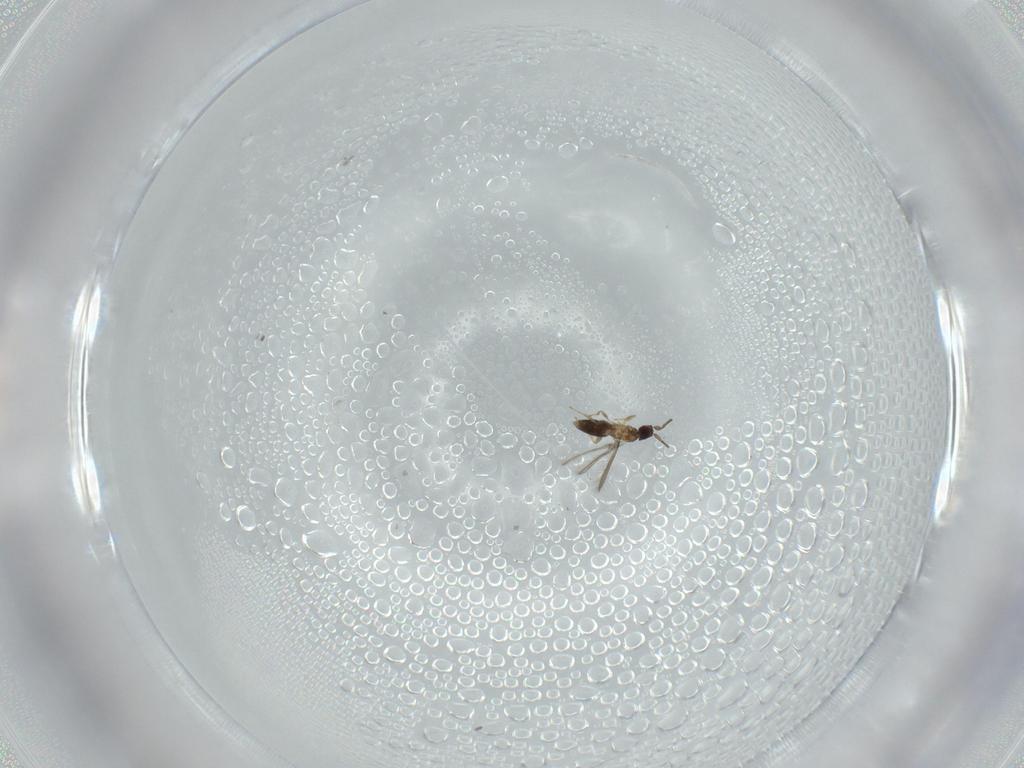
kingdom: Animalia
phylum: Arthropoda
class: Insecta
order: Hymenoptera
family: Mymaridae
